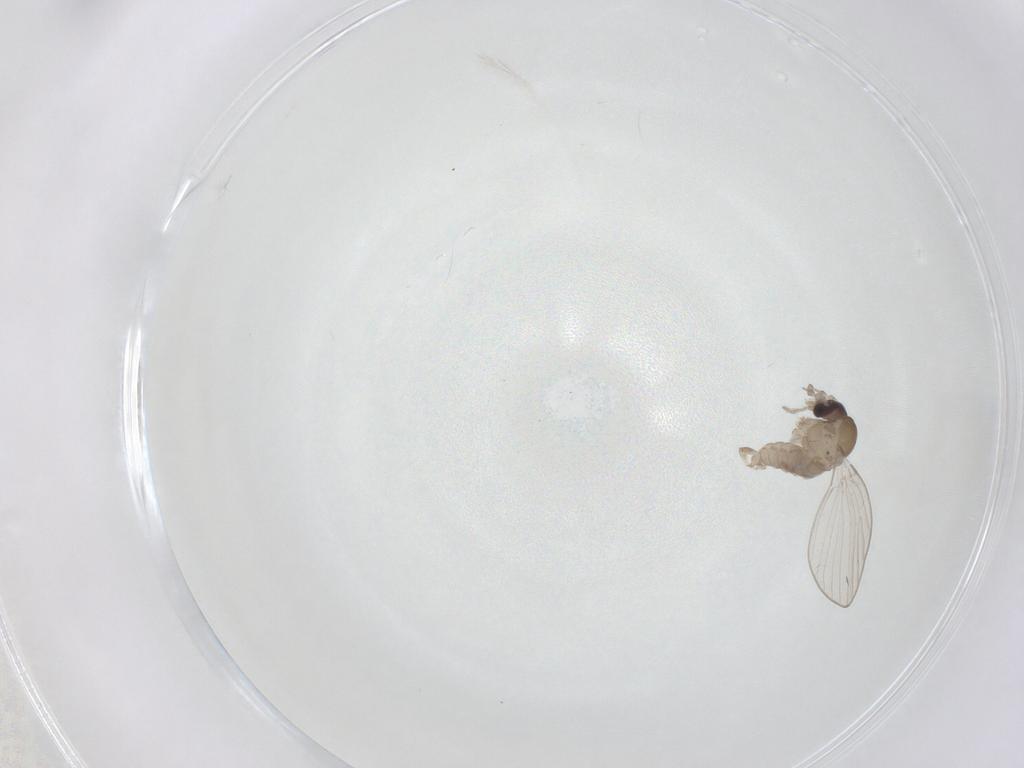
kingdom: Animalia
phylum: Arthropoda
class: Insecta
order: Diptera
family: Psychodidae
